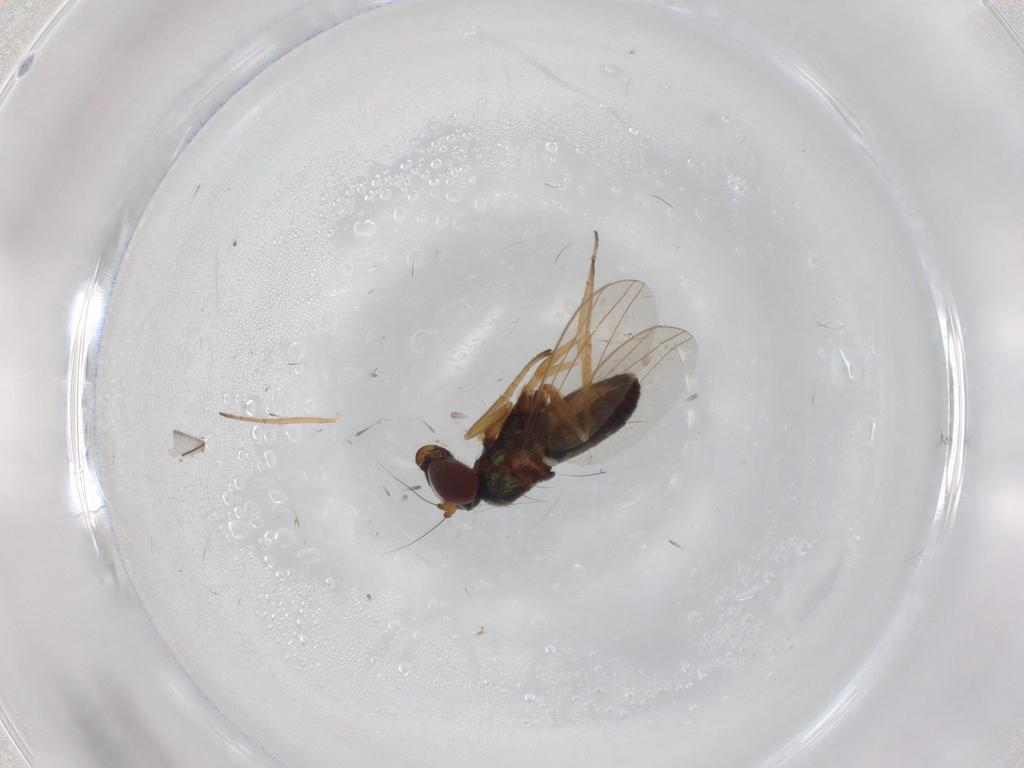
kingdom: Animalia
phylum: Arthropoda
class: Insecta
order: Diptera
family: Dolichopodidae
